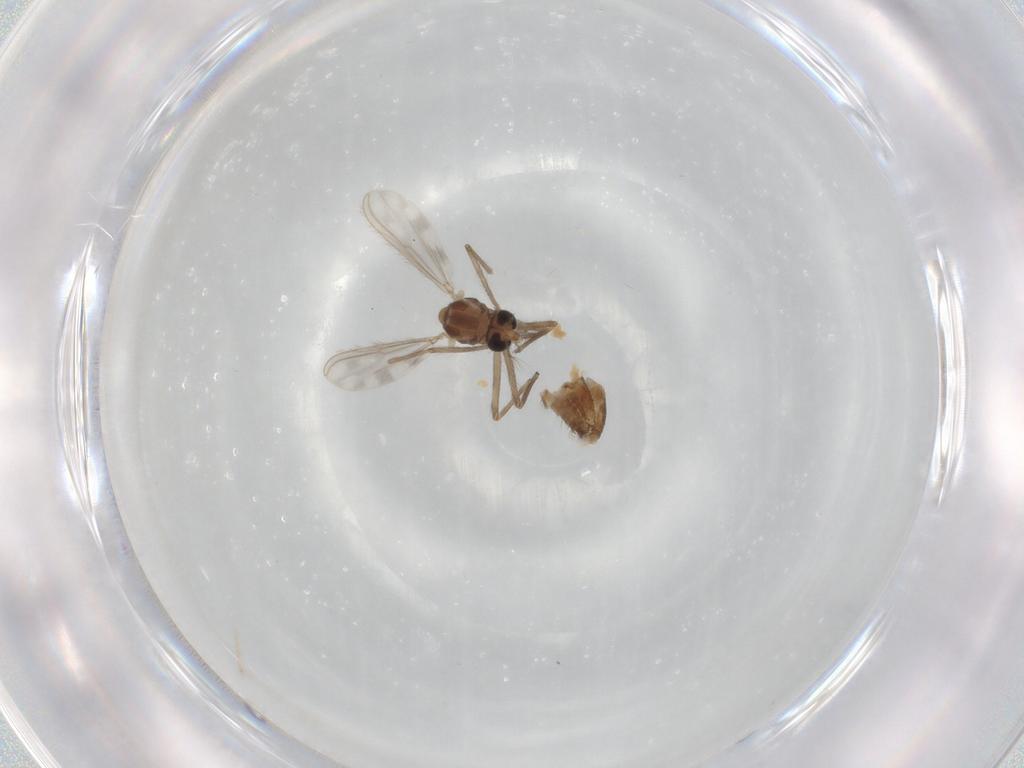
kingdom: Animalia
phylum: Arthropoda
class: Insecta
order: Diptera
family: Chironomidae
